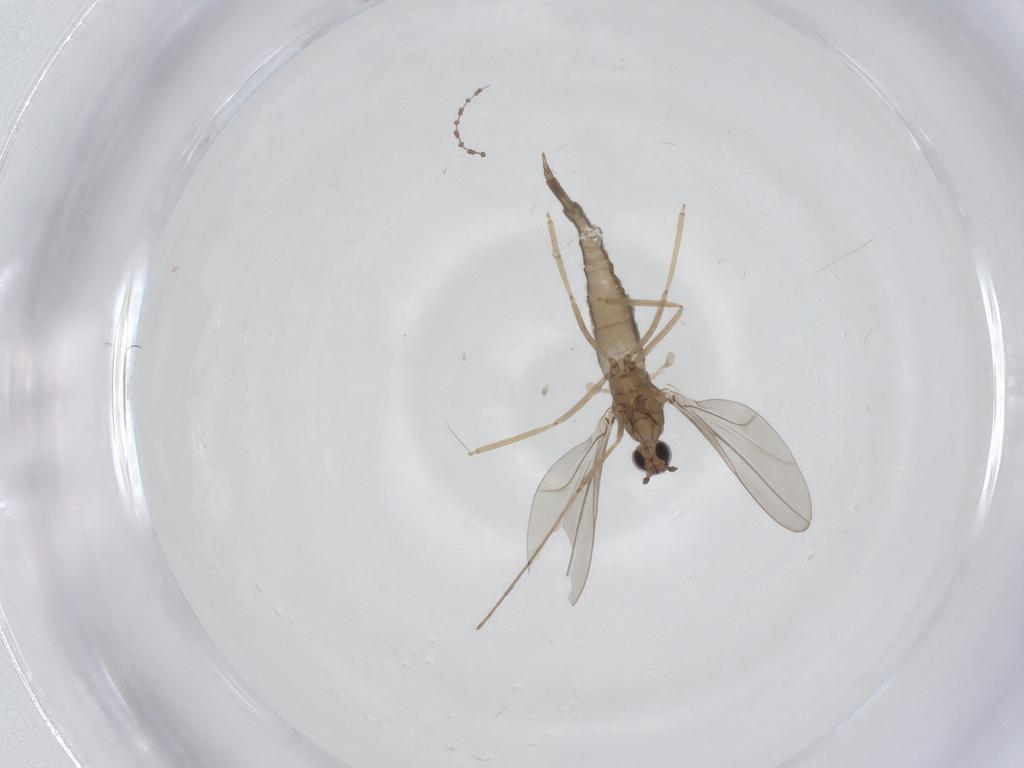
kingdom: Animalia
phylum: Arthropoda
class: Insecta
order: Diptera
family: Cecidomyiidae
